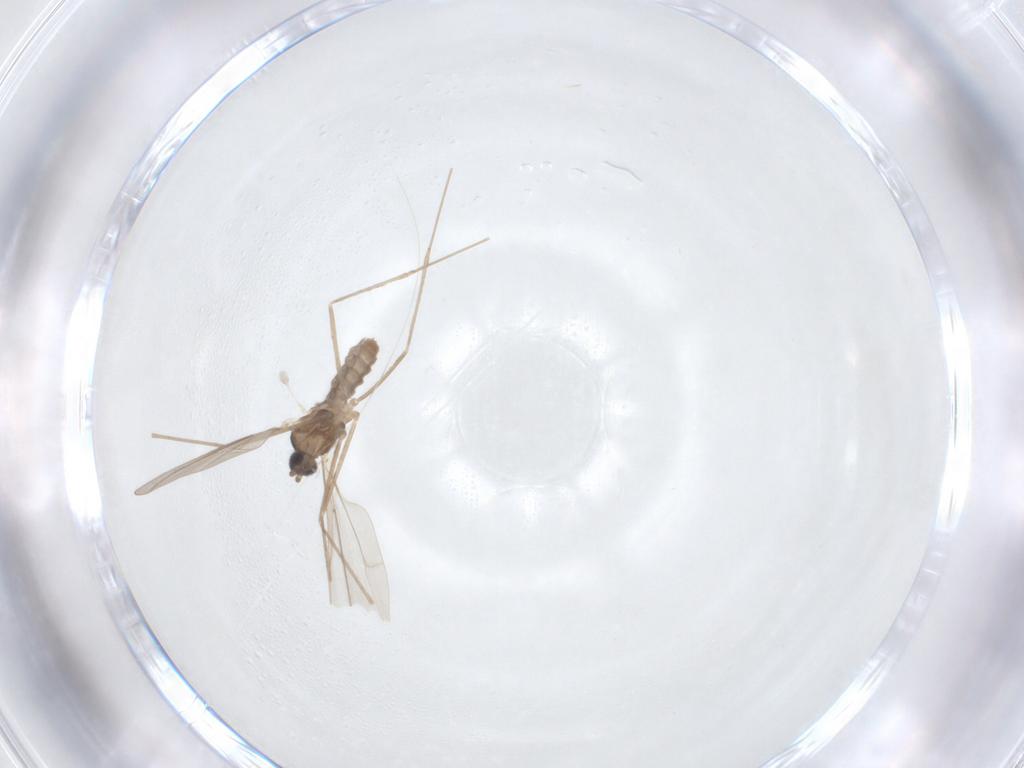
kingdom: Animalia
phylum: Arthropoda
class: Insecta
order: Diptera
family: Cecidomyiidae
